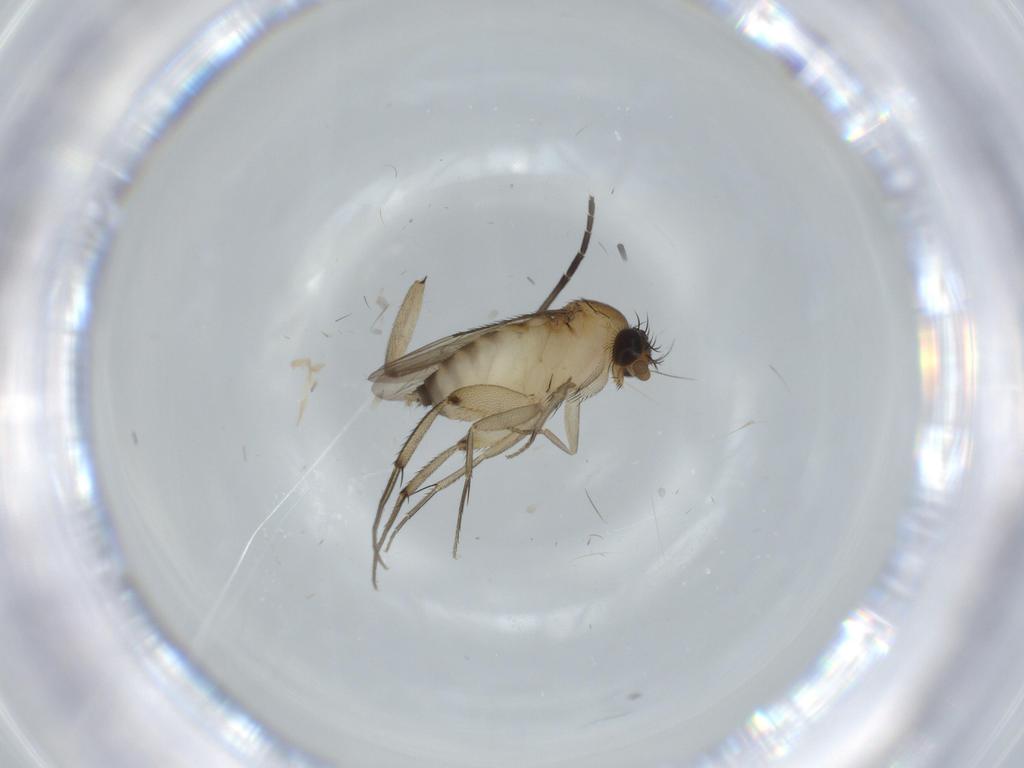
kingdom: Animalia
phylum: Arthropoda
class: Insecta
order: Diptera
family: Phoridae
